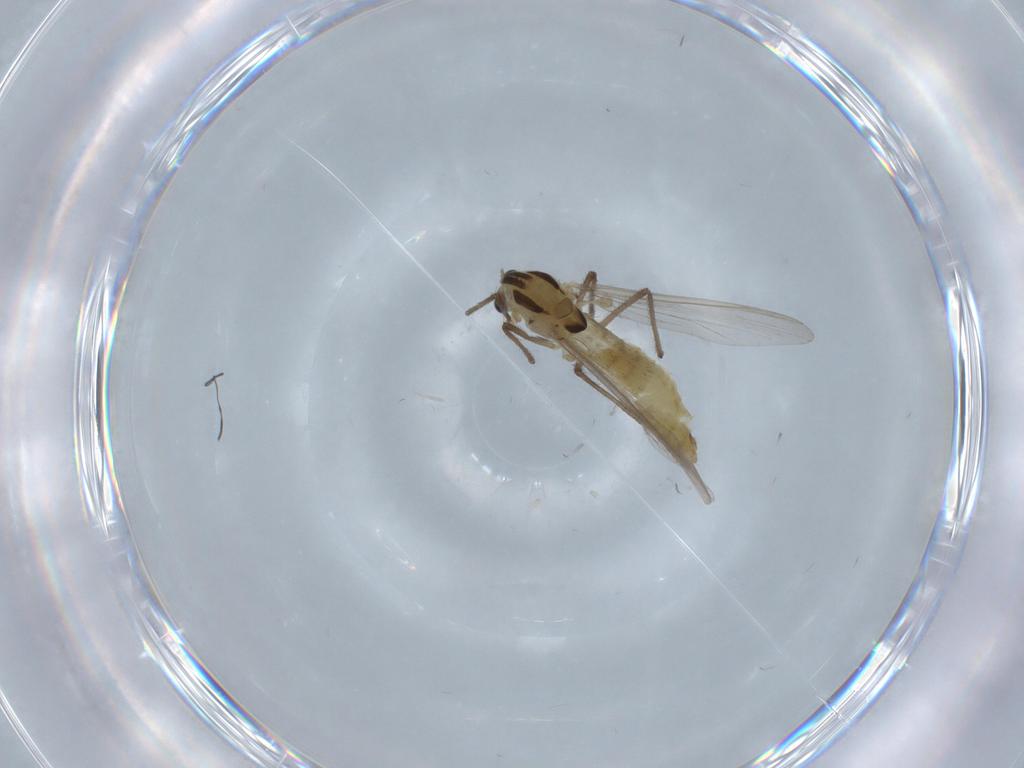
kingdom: Animalia
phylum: Arthropoda
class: Insecta
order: Diptera
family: Chironomidae
